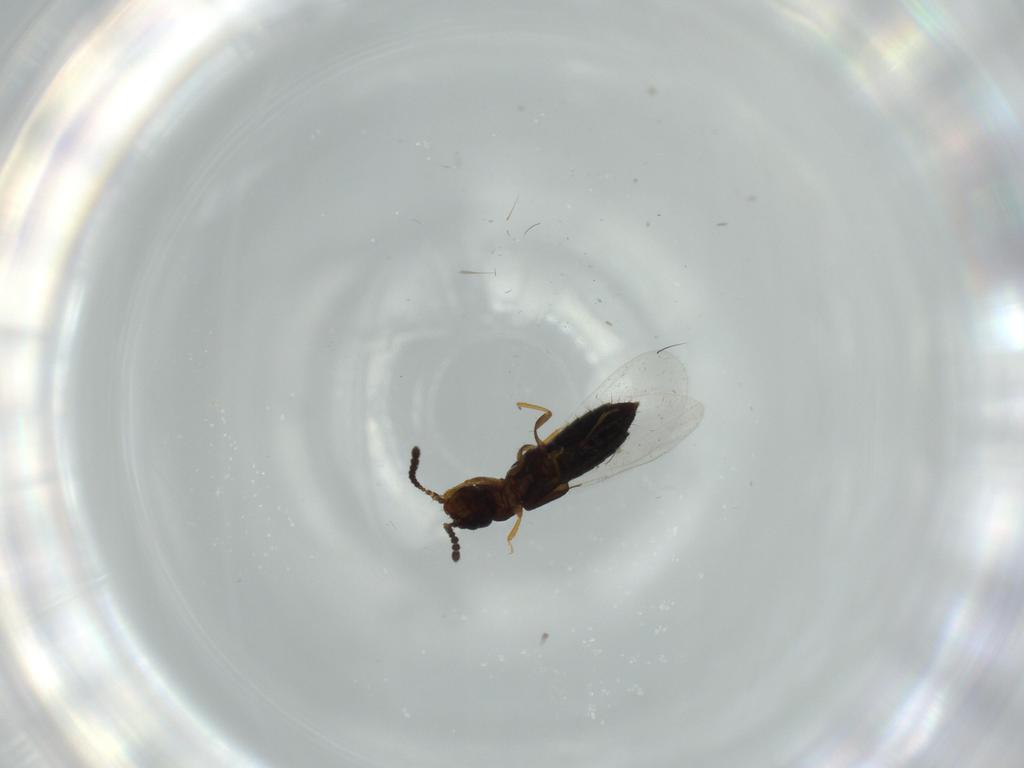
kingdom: Animalia
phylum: Arthropoda
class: Insecta
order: Coleoptera
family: Staphylinidae
